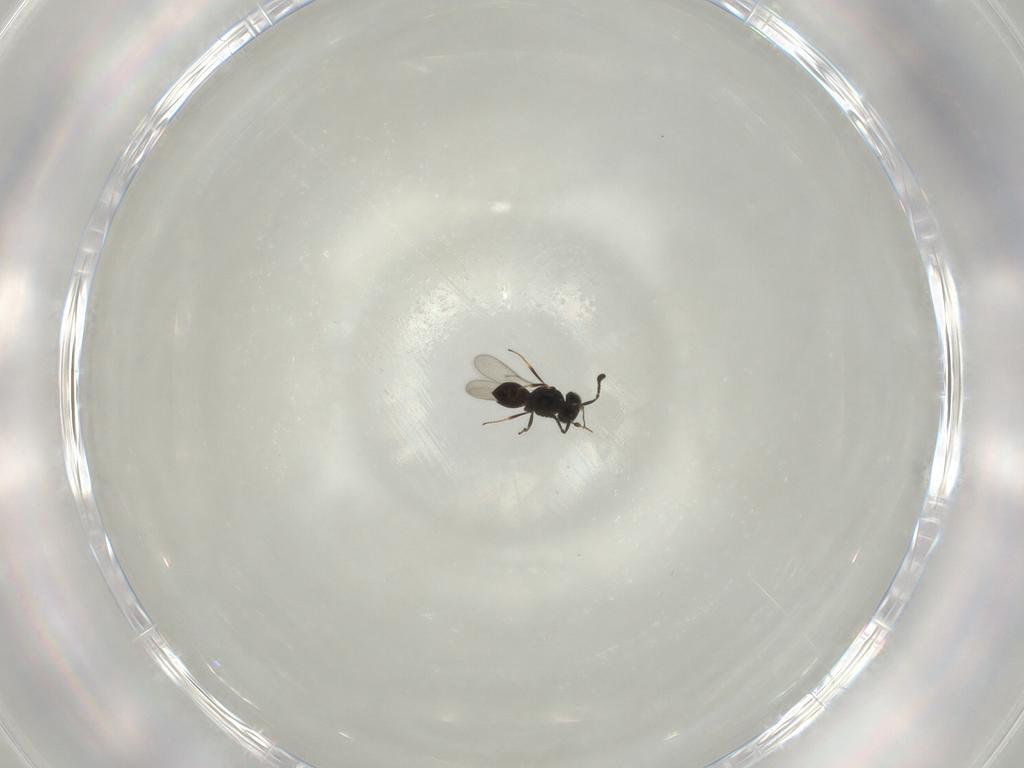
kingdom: Animalia
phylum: Arthropoda
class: Insecta
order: Hymenoptera
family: Scelionidae
